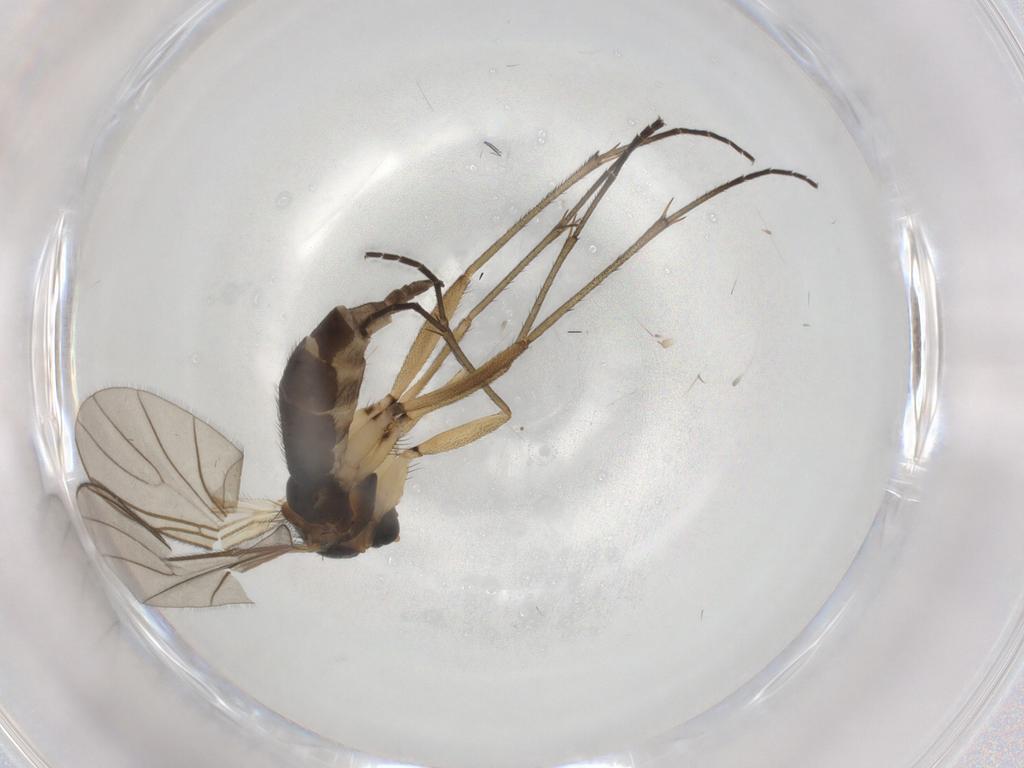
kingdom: Animalia
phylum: Arthropoda
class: Insecta
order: Diptera
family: Sciaridae
